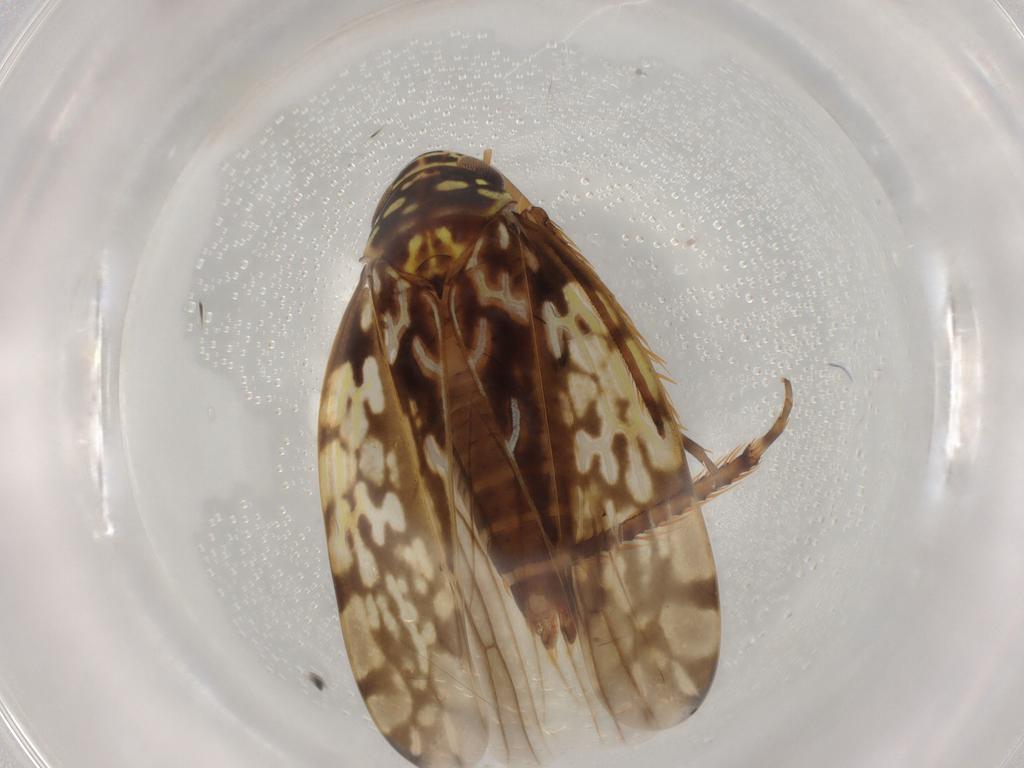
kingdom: Animalia
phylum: Arthropoda
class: Insecta
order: Hemiptera
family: Cicadellidae
